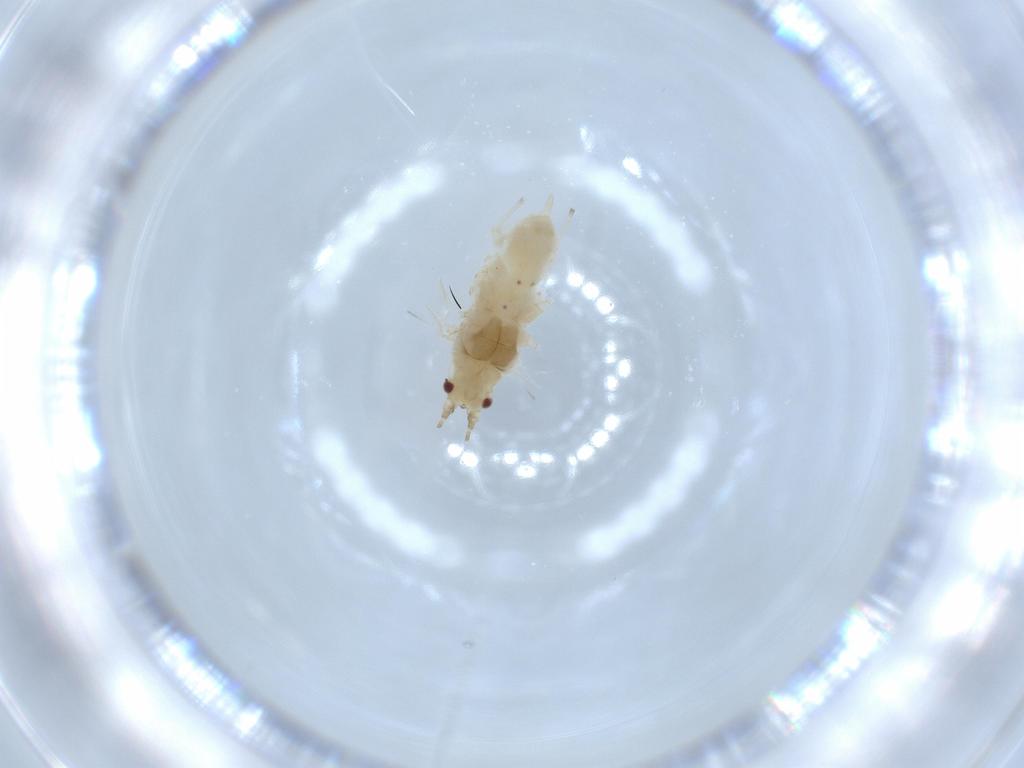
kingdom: Animalia
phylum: Arthropoda
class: Insecta
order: Hemiptera
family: Aphididae
